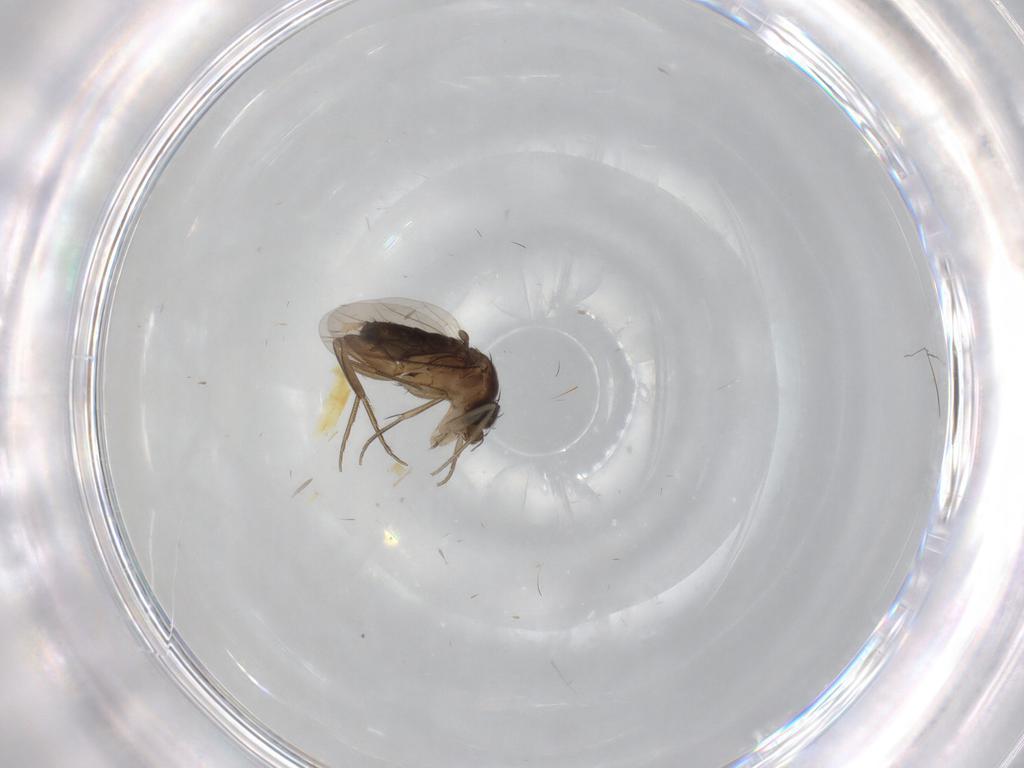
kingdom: Animalia
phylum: Arthropoda
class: Insecta
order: Diptera
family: Phoridae
